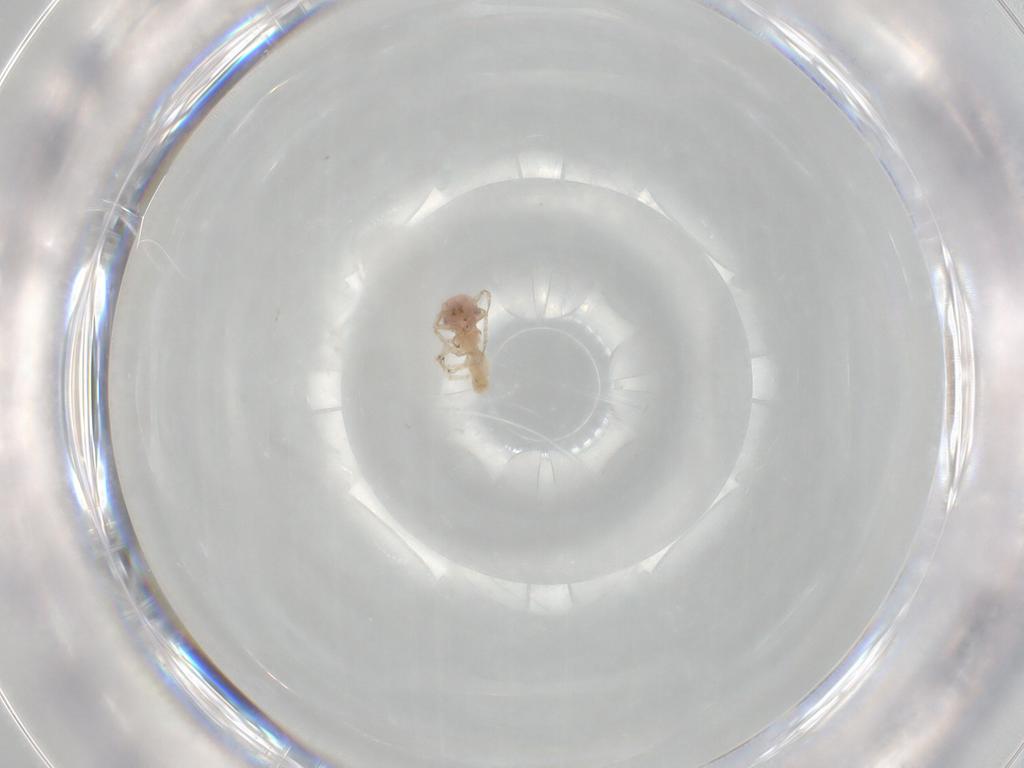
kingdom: Animalia
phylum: Arthropoda
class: Insecta
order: Psocodea
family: Stenopsocidae
